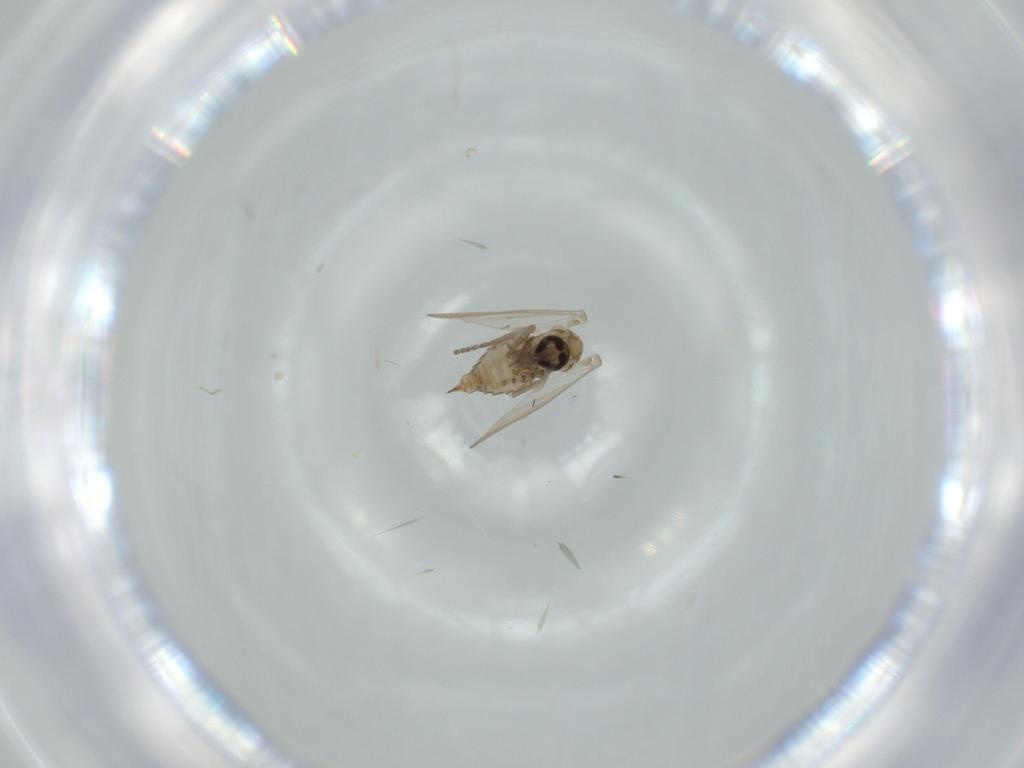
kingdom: Animalia
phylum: Arthropoda
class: Insecta
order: Diptera
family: Psychodidae
